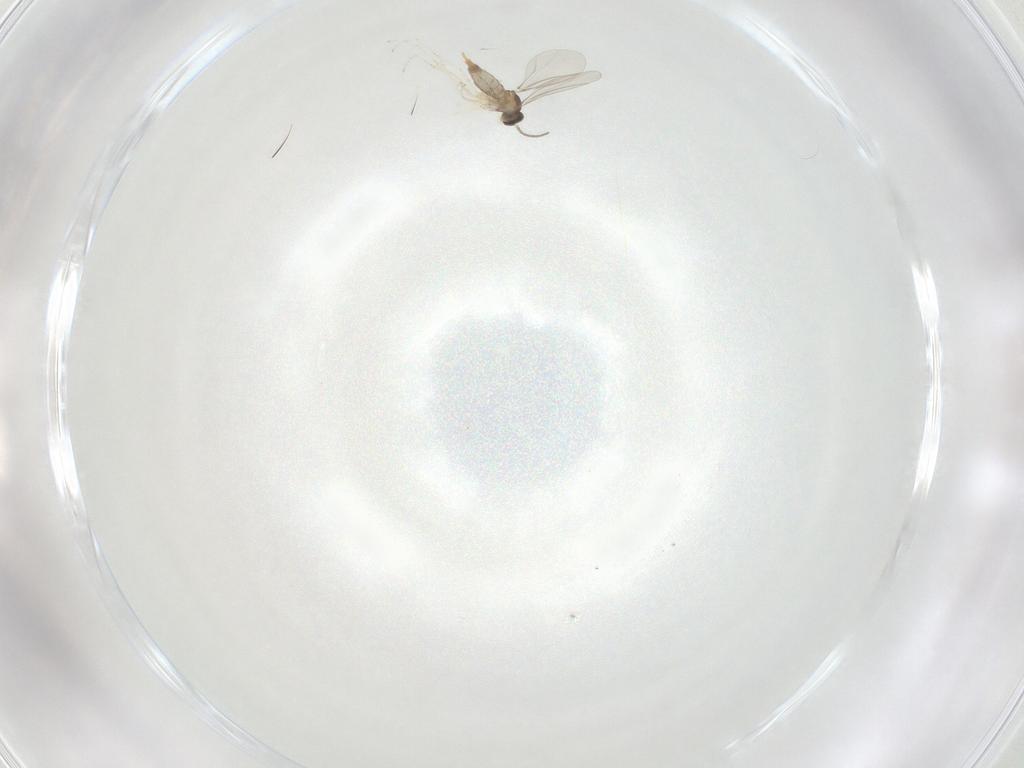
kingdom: Animalia
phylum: Arthropoda
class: Insecta
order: Diptera
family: Cecidomyiidae
